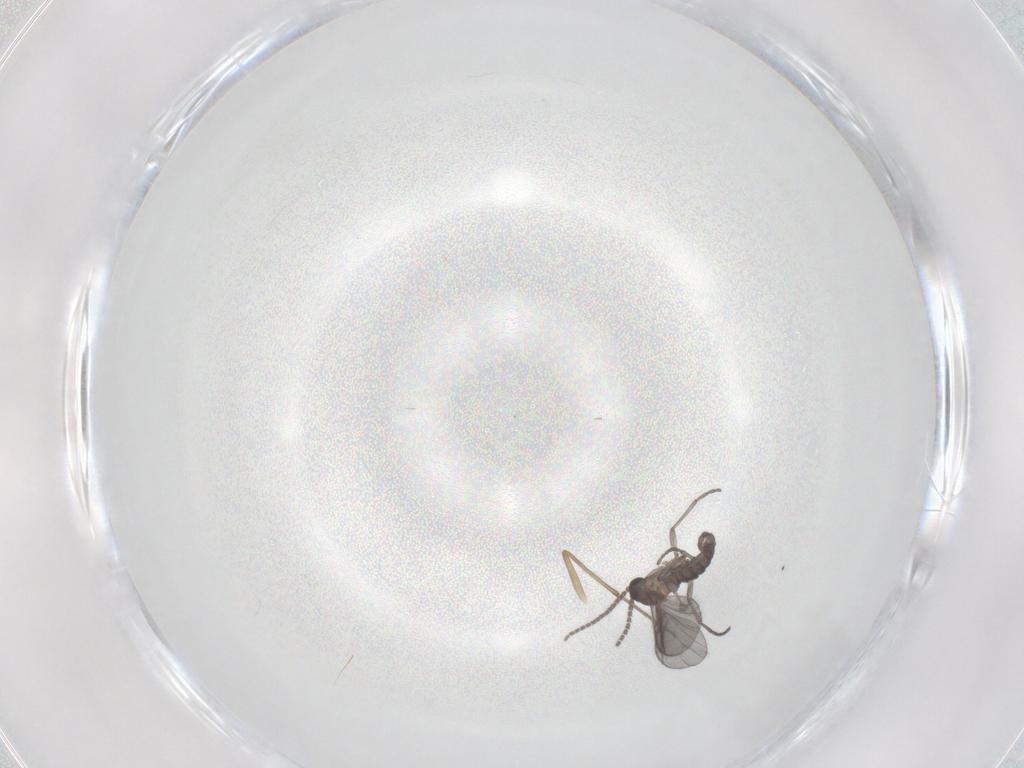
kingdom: Animalia
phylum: Arthropoda
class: Insecta
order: Diptera
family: Sciaridae
